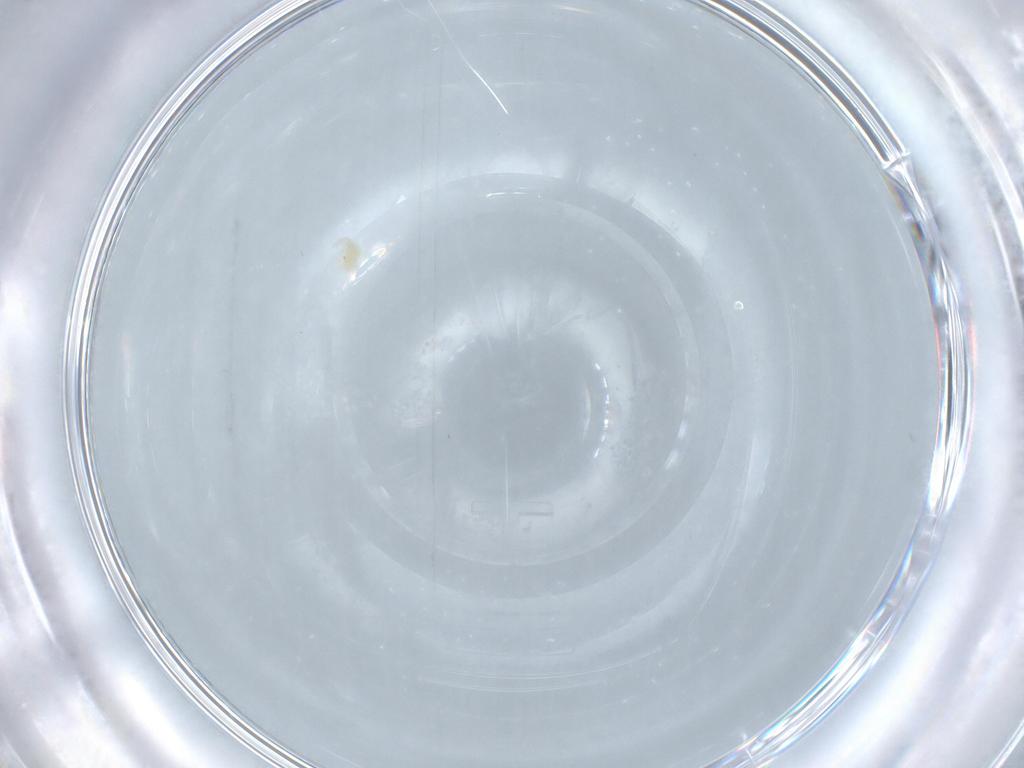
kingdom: Animalia
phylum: Arthropoda
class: Arachnida
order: Trombidiformes
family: Tetranychidae
